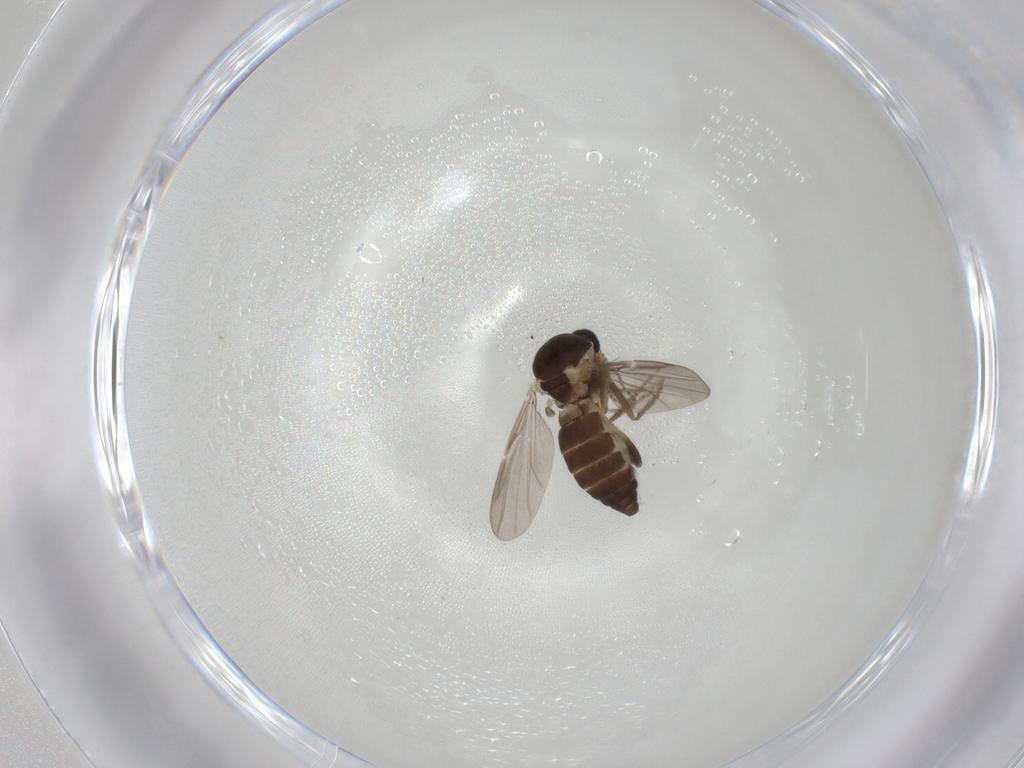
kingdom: Animalia
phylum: Arthropoda
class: Insecta
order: Diptera
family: Ceratopogonidae
